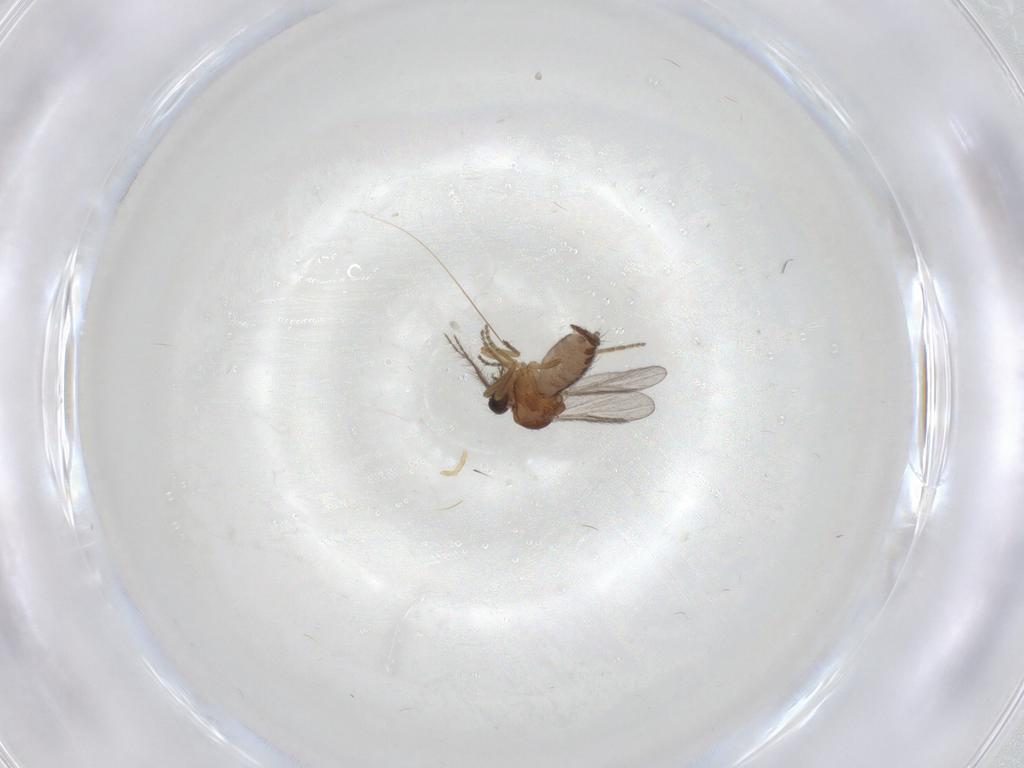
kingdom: Animalia
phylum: Arthropoda
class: Insecta
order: Diptera
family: Ceratopogonidae
